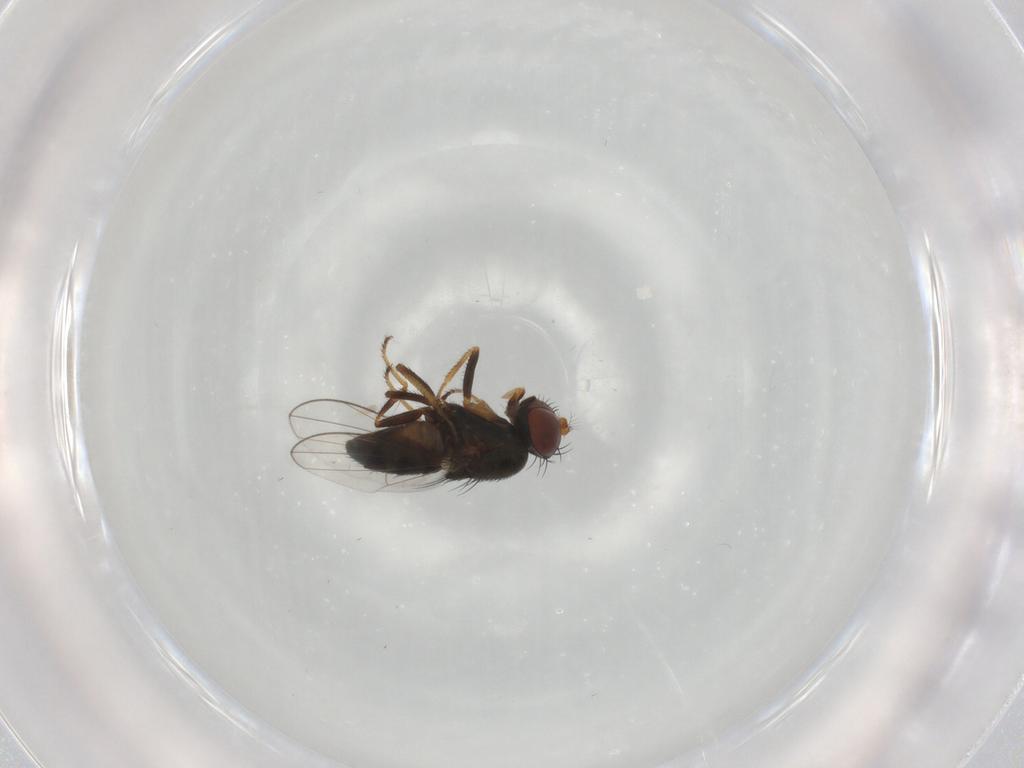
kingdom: Animalia
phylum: Arthropoda
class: Insecta
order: Diptera
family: Ephydridae
